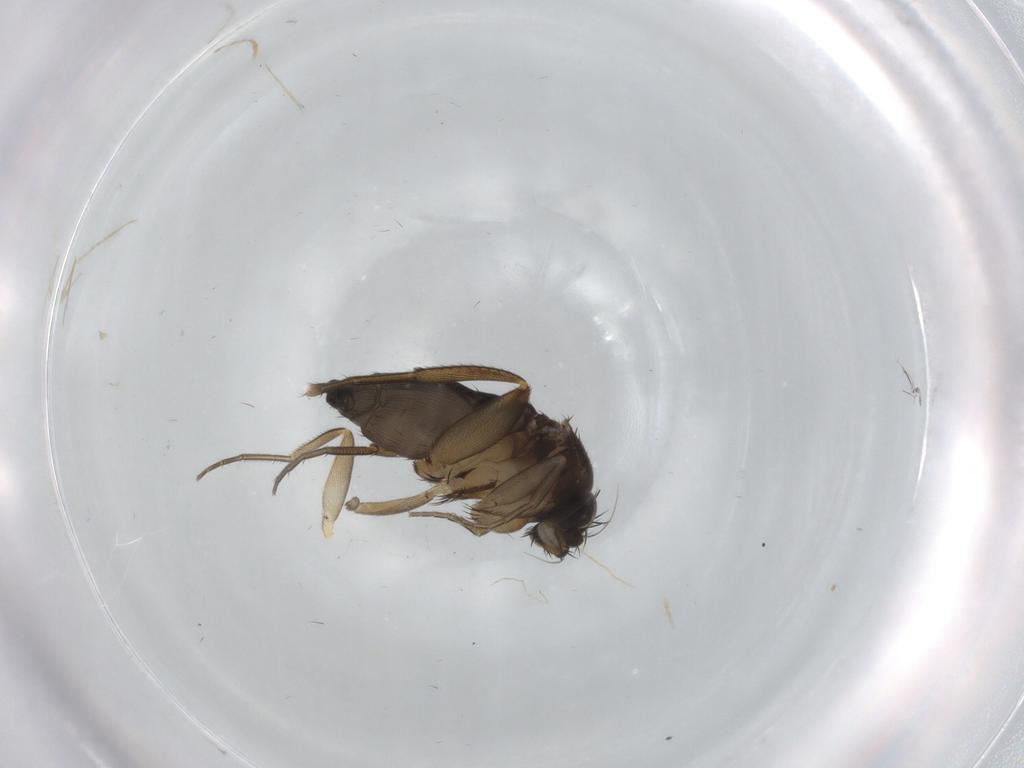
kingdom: Animalia
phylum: Arthropoda
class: Insecta
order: Diptera
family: Phoridae
